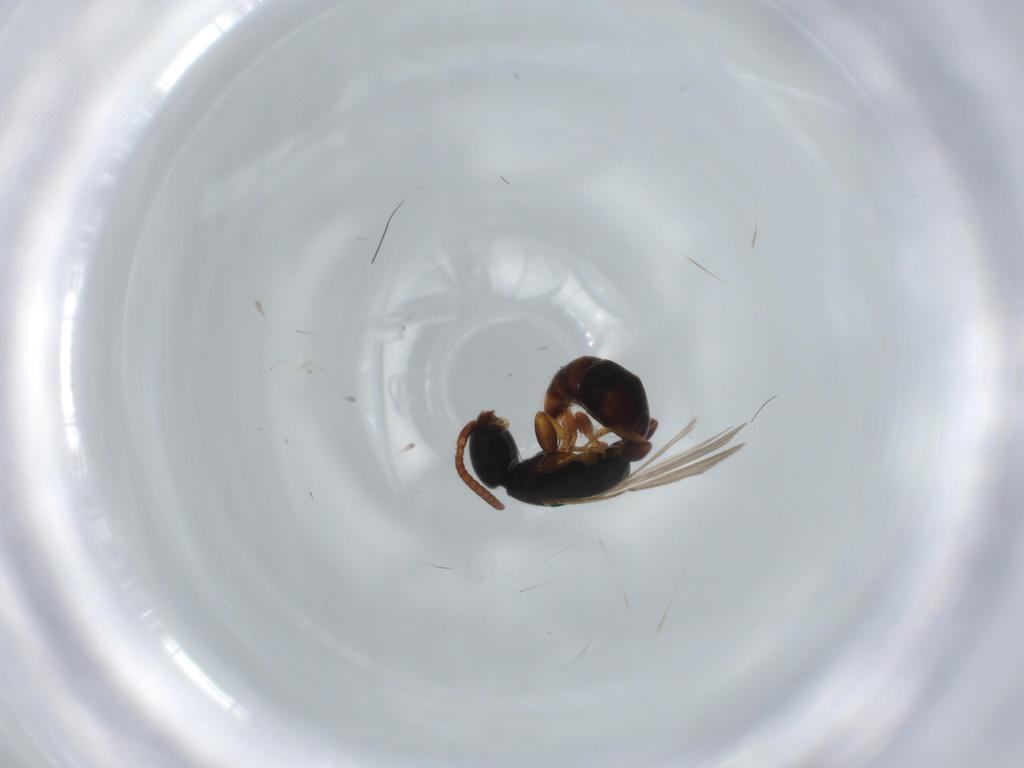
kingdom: Animalia
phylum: Arthropoda
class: Insecta
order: Hymenoptera
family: Bethylidae
